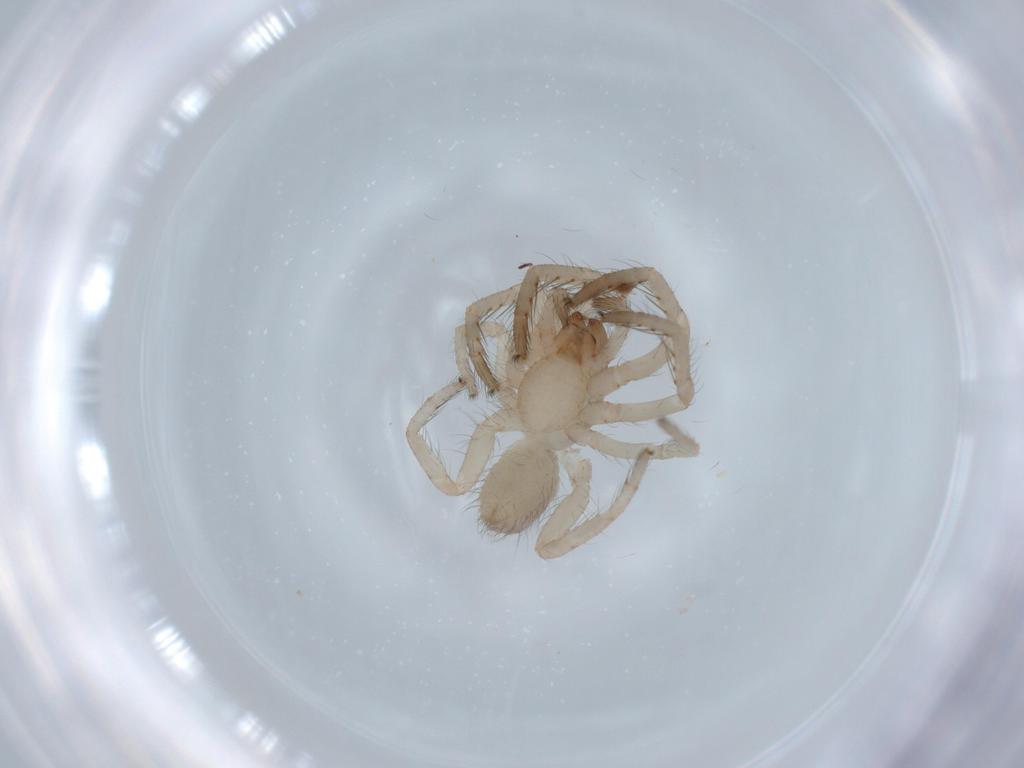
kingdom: Animalia
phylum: Arthropoda
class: Arachnida
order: Araneae
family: Segestriidae
